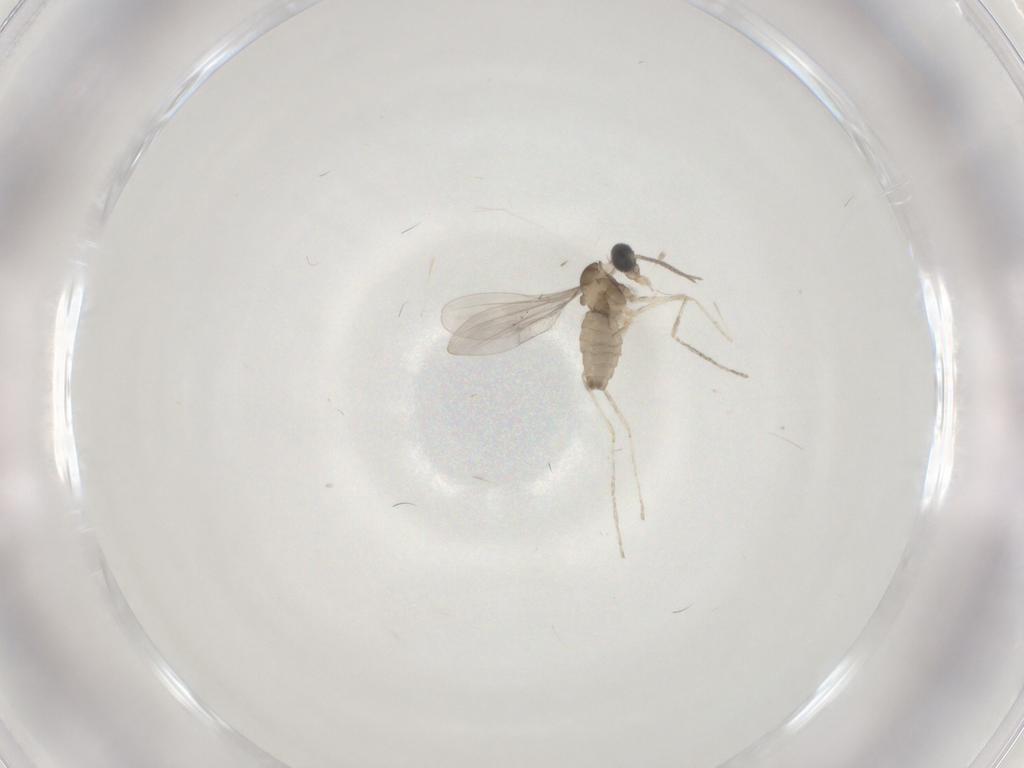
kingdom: Animalia
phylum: Arthropoda
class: Insecta
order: Diptera
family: Cecidomyiidae
